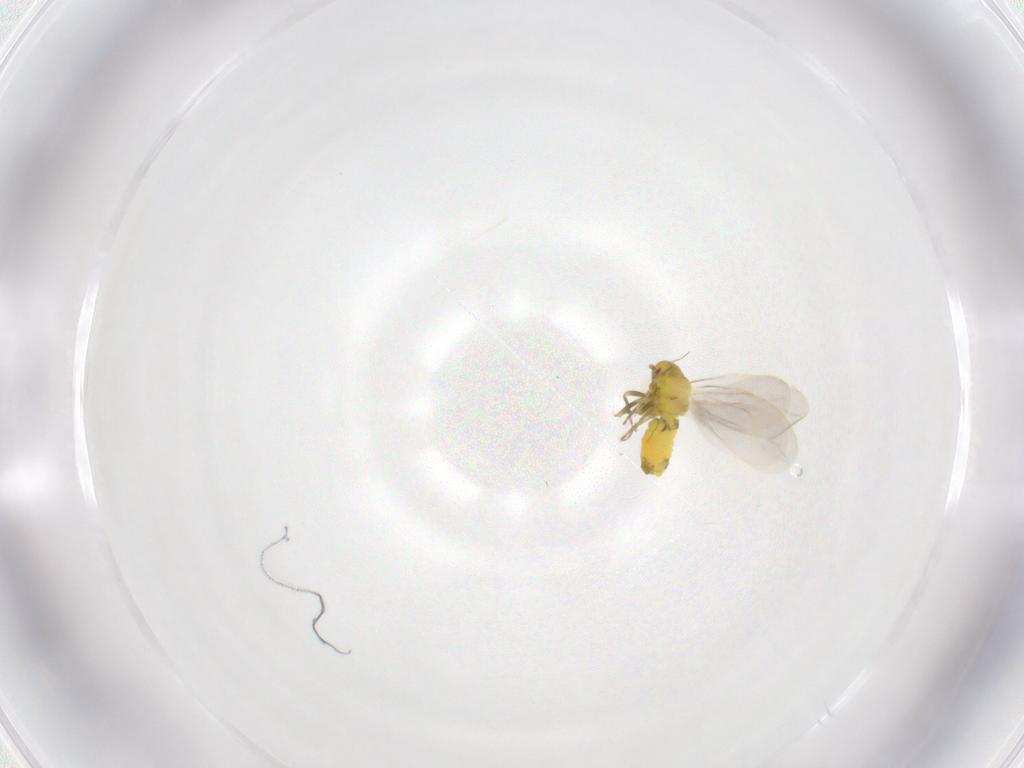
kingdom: Animalia
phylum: Arthropoda
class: Insecta
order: Hemiptera
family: Aleyrodidae
